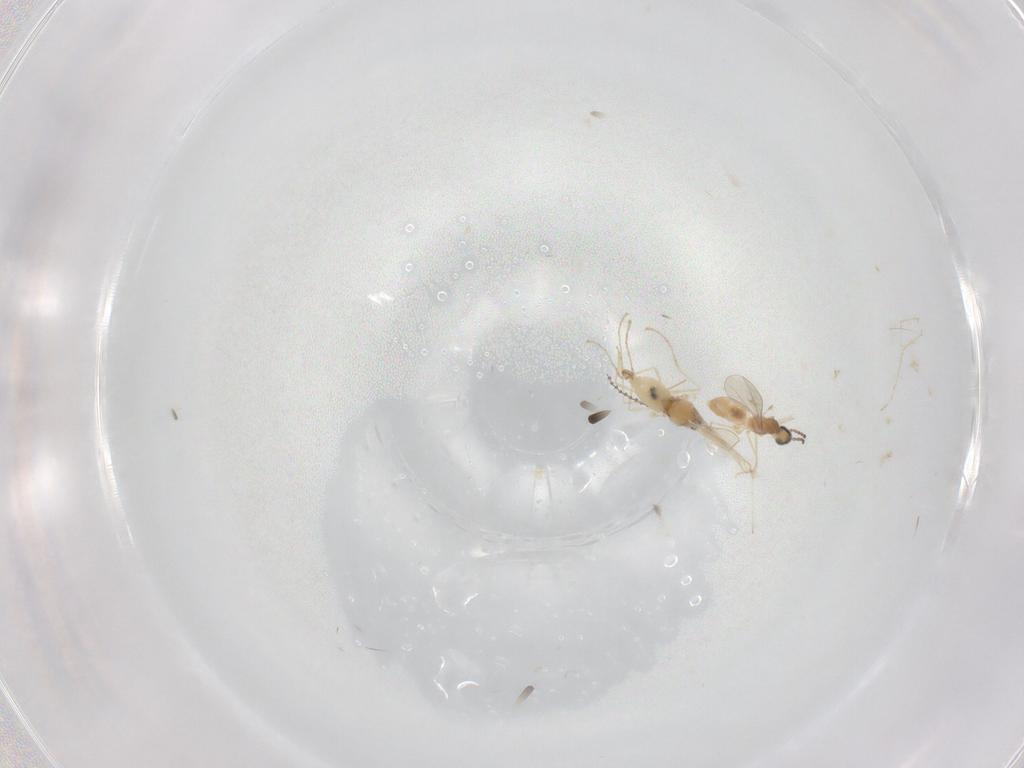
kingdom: Animalia
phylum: Arthropoda
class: Insecta
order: Diptera
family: Cecidomyiidae
